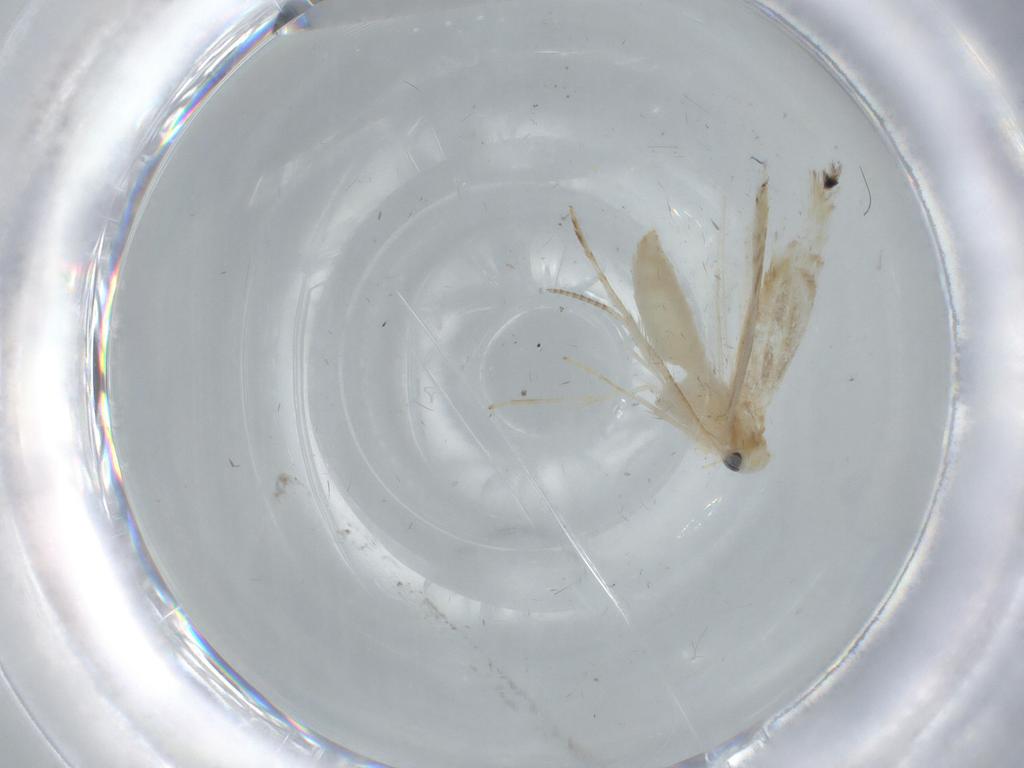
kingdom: Animalia
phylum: Arthropoda
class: Insecta
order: Lepidoptera
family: Gracillariidae
